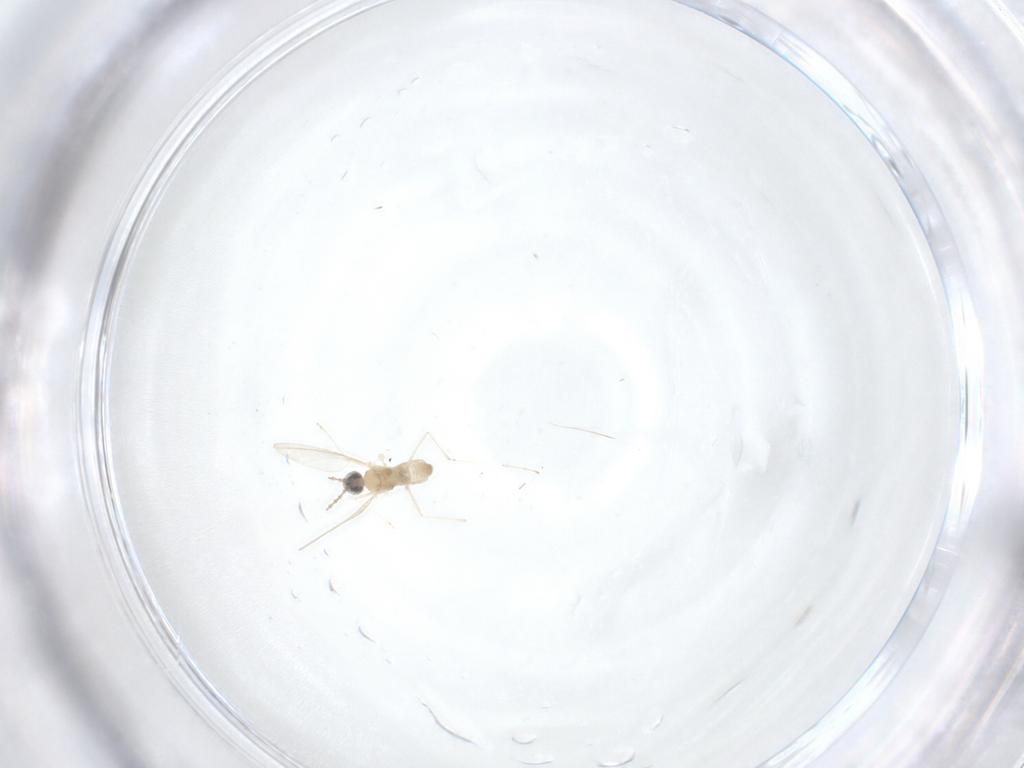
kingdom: Animalia
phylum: Arthropoda
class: Insecta
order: Diptera
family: Cecidomyiidae
